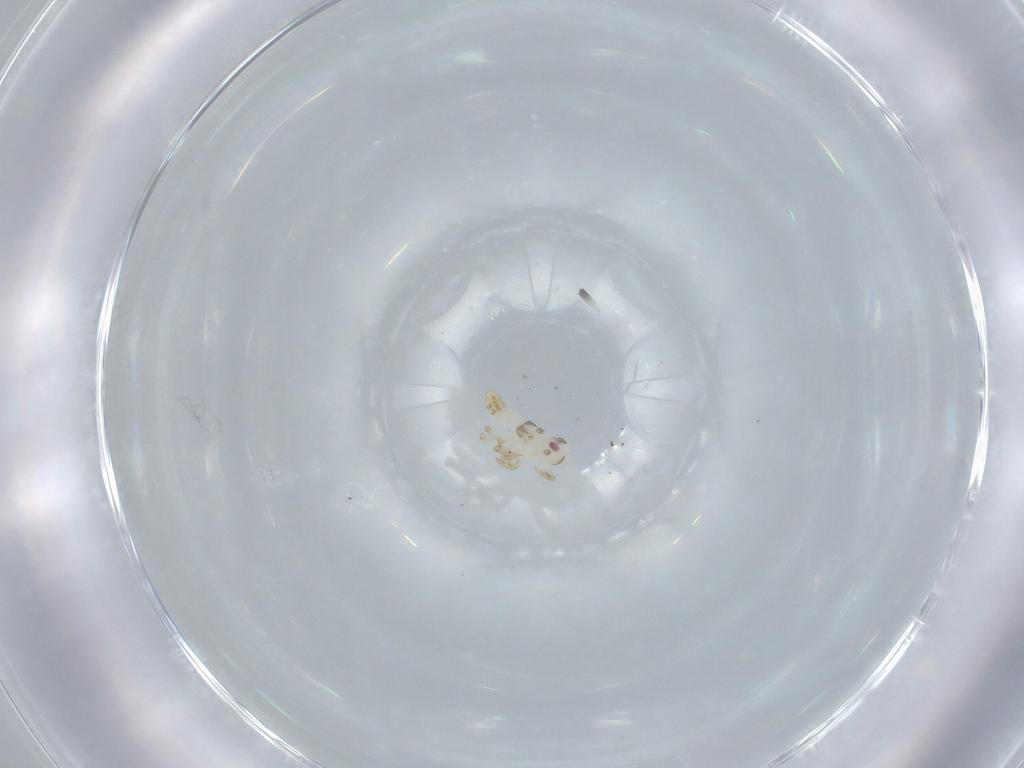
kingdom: Animalia
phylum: Arthropoda
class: Insecta
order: Hemiptera
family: Delphacidae
